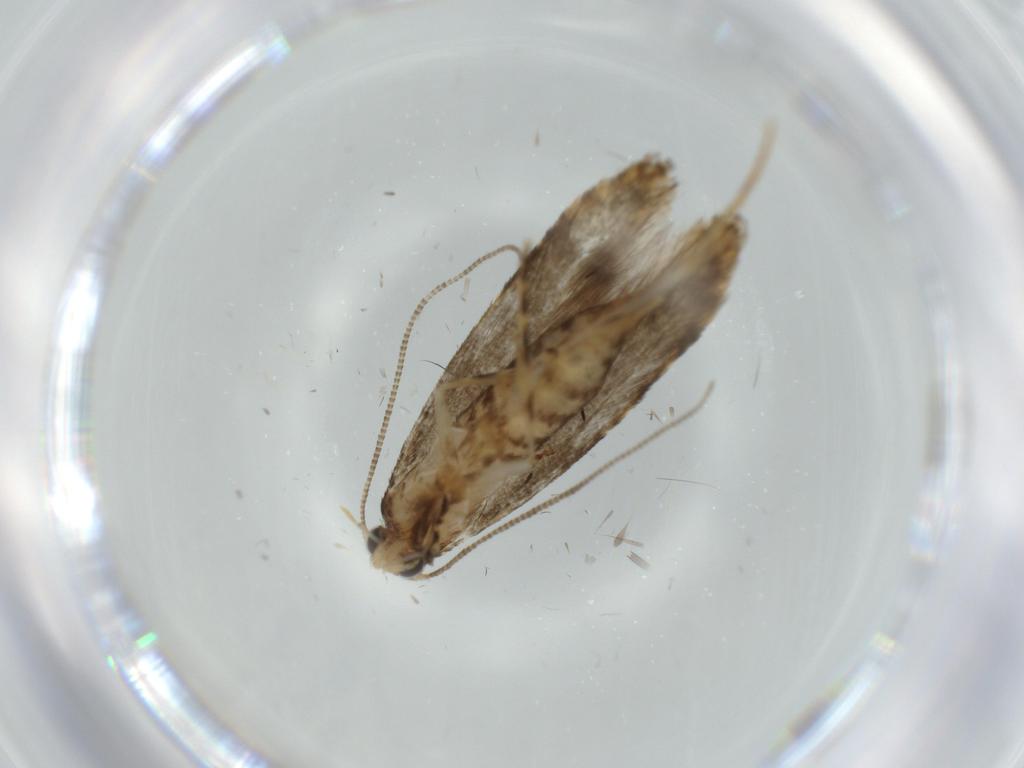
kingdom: Animalia
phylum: Arthropoda
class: Insecta
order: Lepidoptera
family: Tineidae
